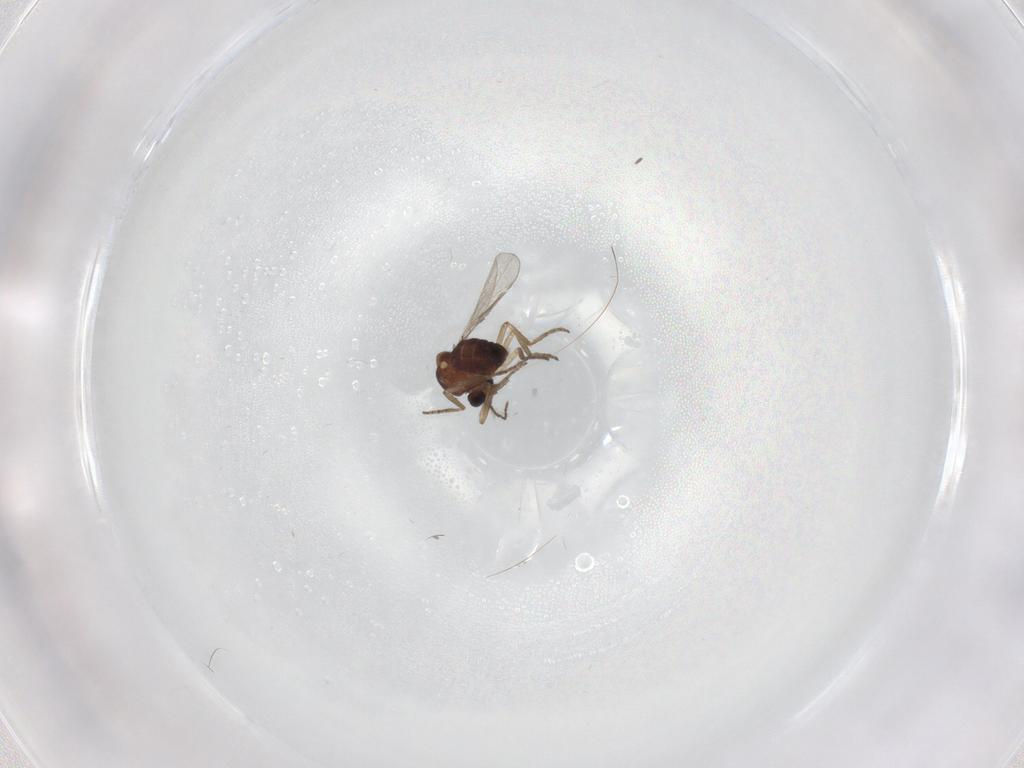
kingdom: Animalia
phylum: Arthropoda
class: Insecta
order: Diptera
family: Ceratopogonidae
